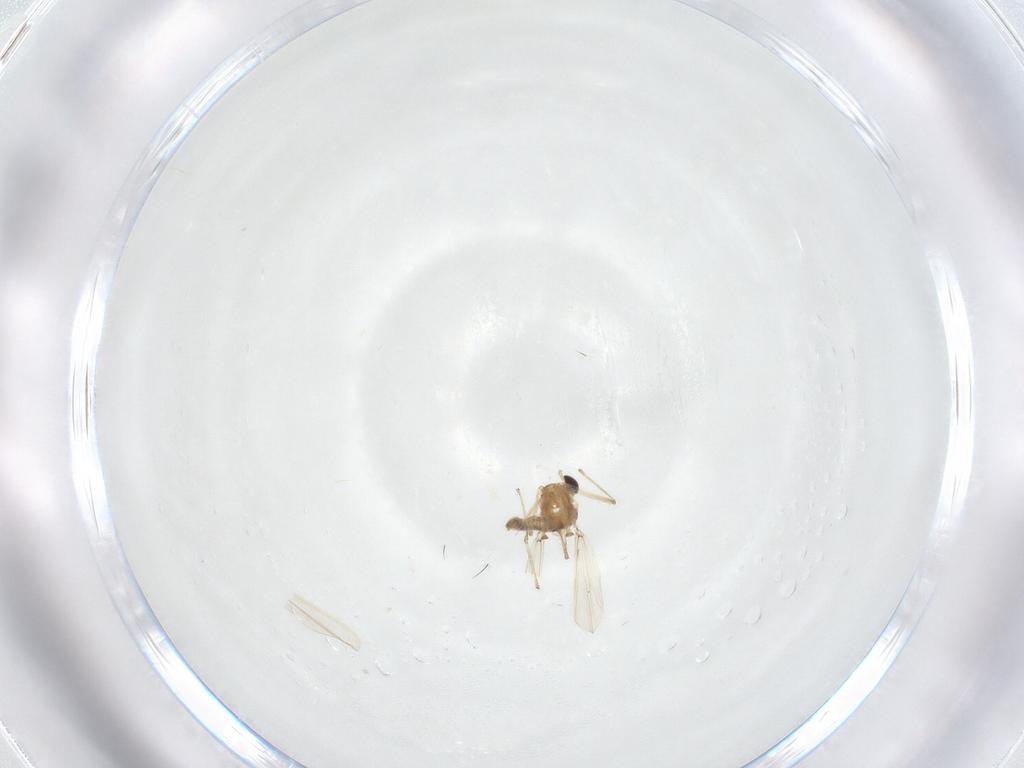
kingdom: Animalia
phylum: Arthropoda
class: Insecta
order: Diptera
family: Chironomidae
